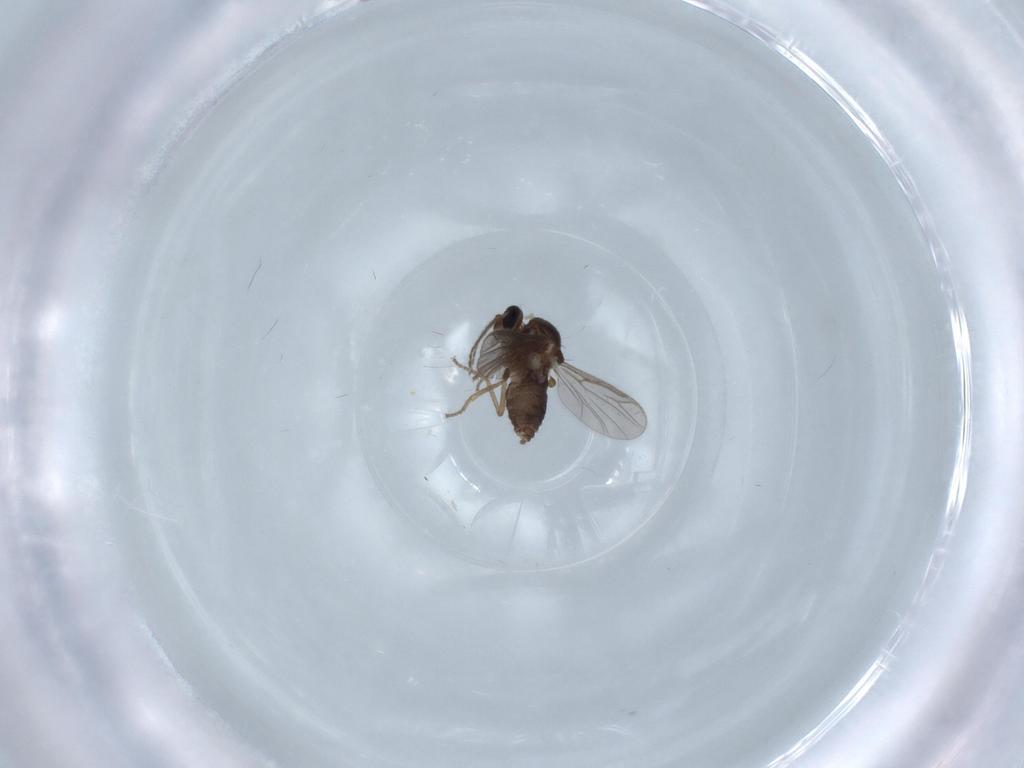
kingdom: Animalia
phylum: Arthropoda
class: Insecta
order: Diptera
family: Ceratopogonidae
